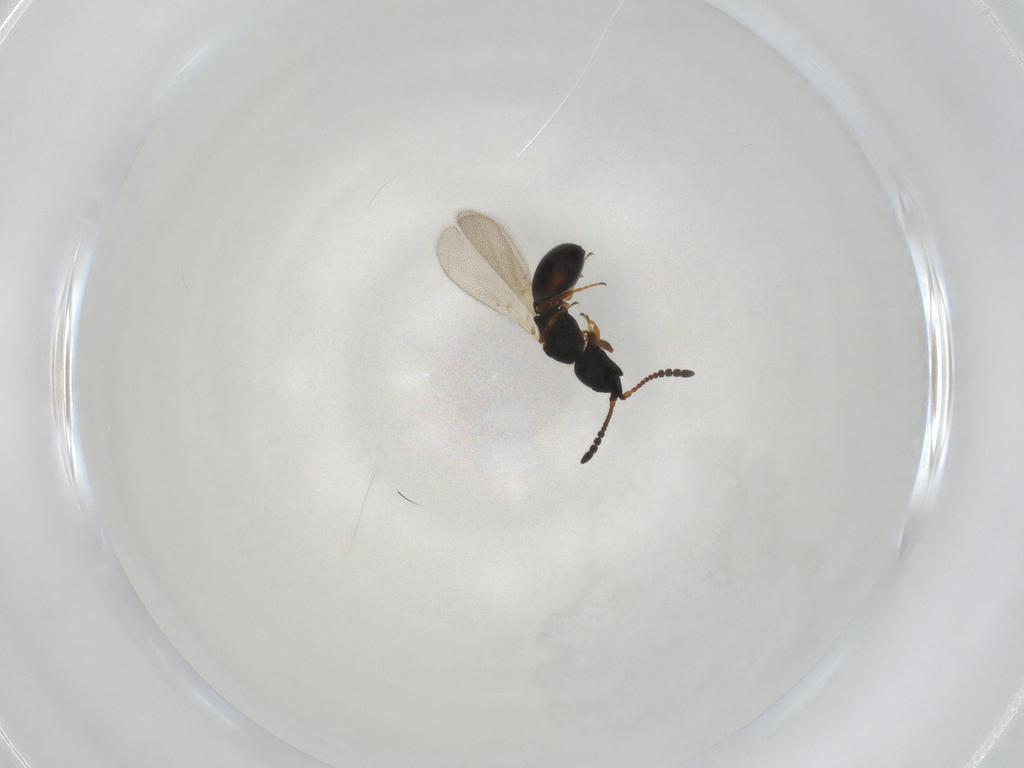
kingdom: Animalia
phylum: Arthropoda
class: Insecta
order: Hymenoptera
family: Diapriidae
